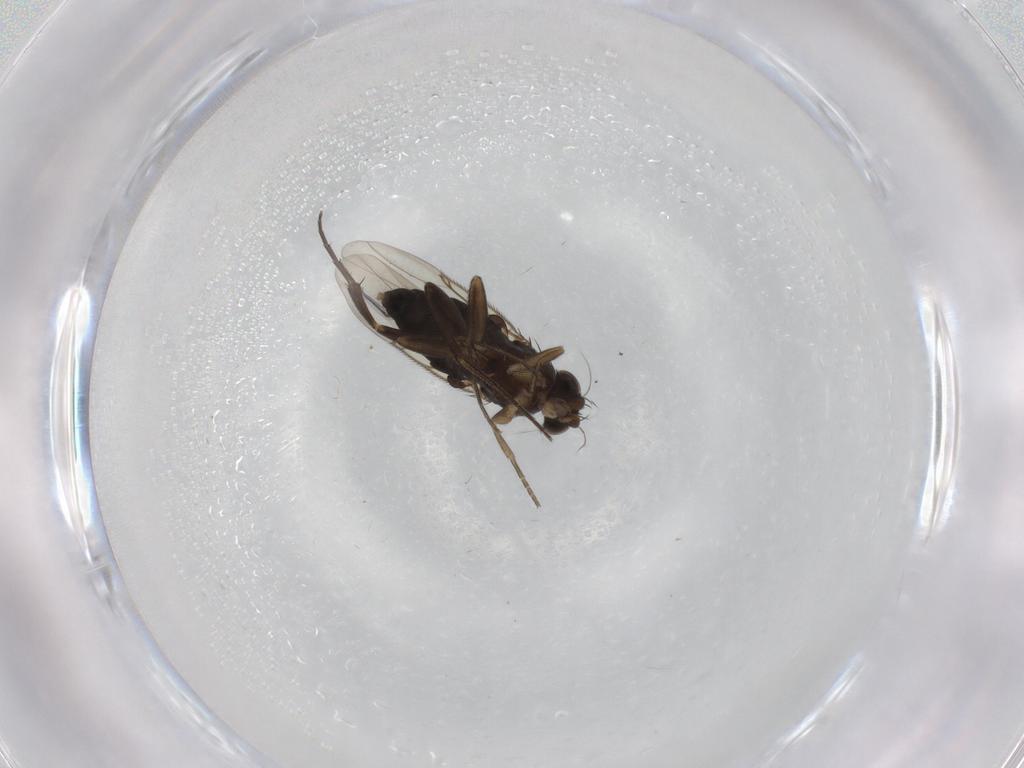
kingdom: Animalia
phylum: Arthropoda
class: Insecta
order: Diptera
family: Phoridae
